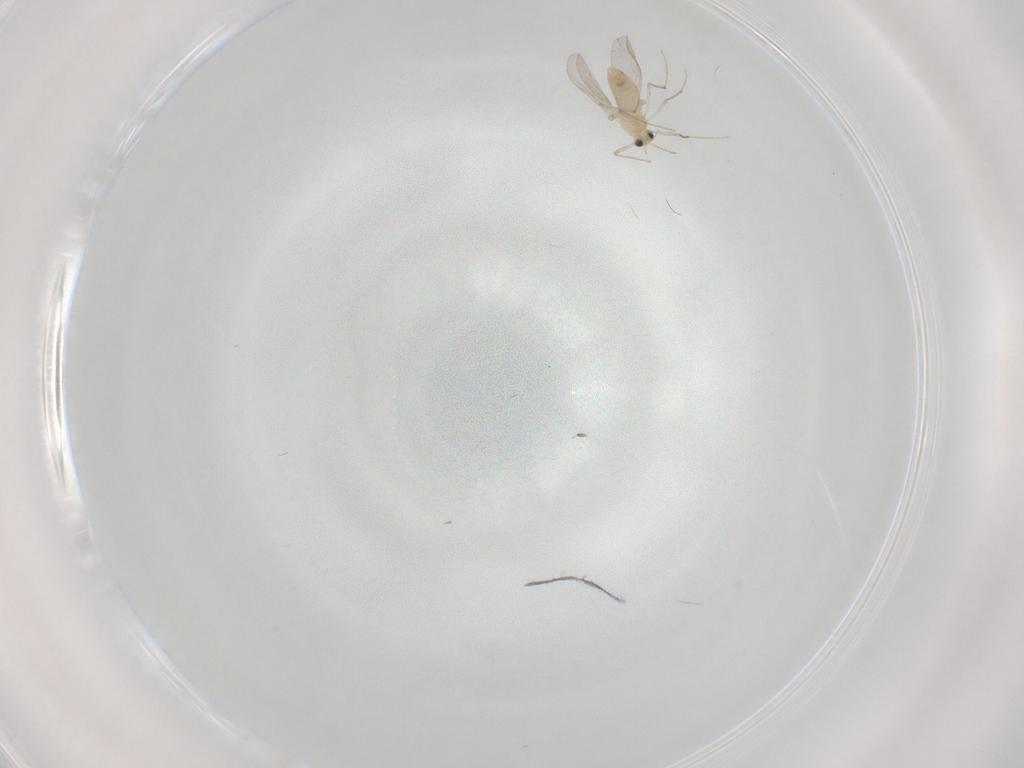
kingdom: Animalia
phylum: Arthropoda
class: Insecta
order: Diptera
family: Chironomidae
